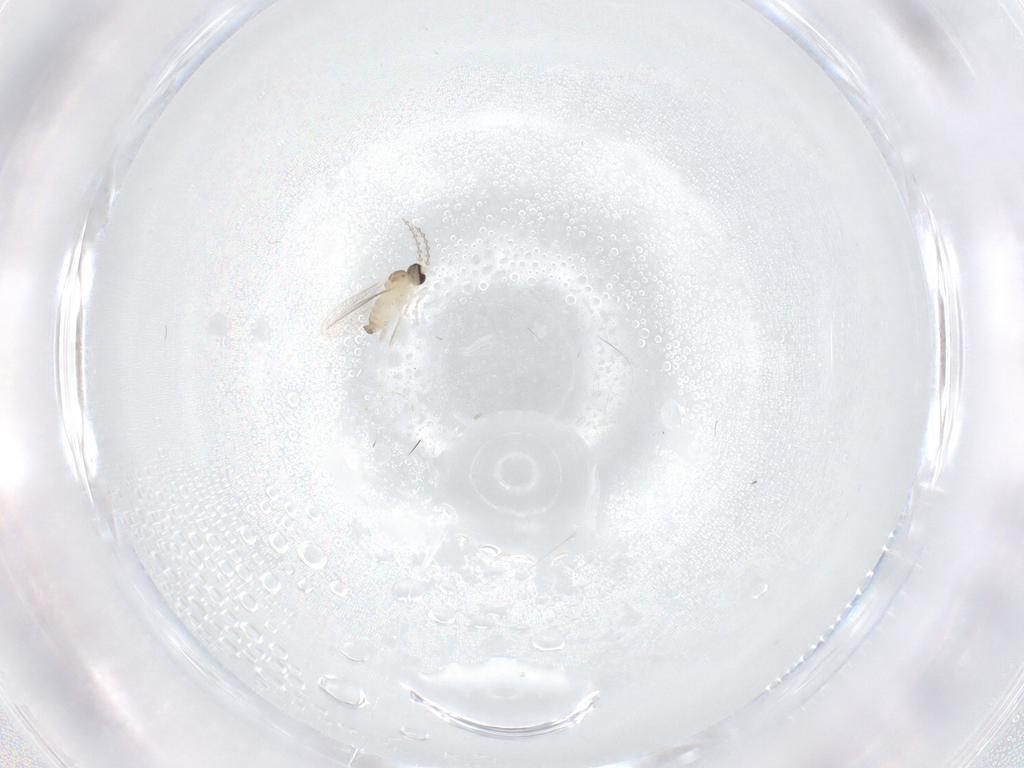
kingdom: Animalia
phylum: Arthropoda
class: Insecta
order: Diptera
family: Cecidomyiidae
